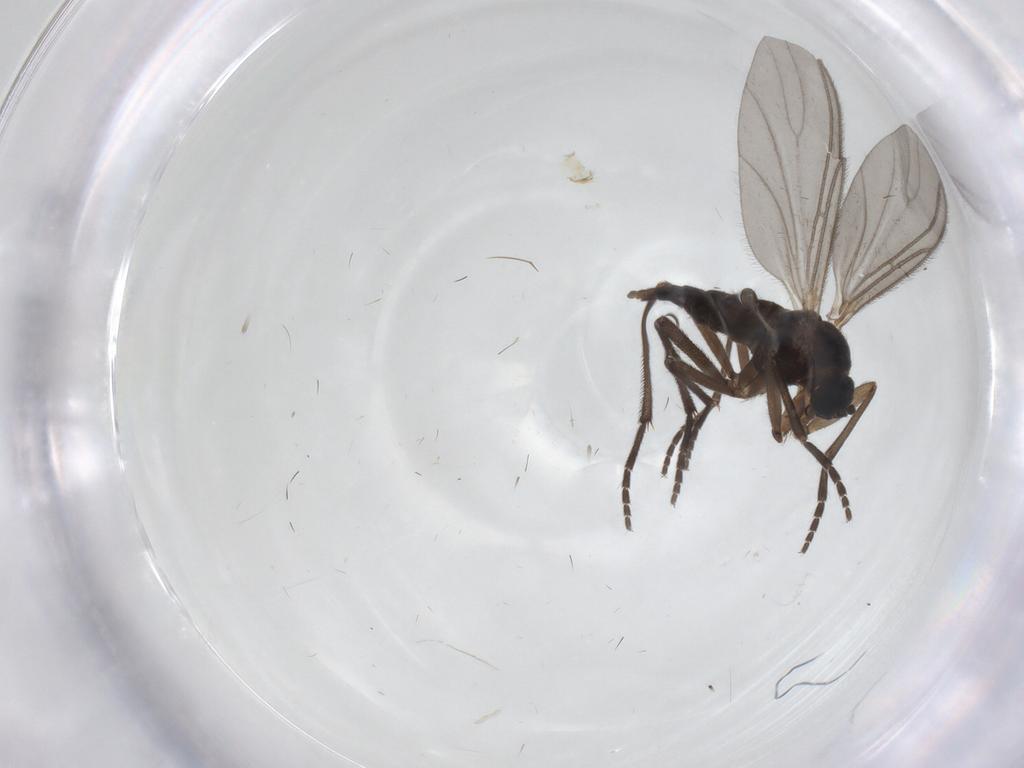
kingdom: Animalia
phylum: Arthropoda
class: Insecta
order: Diptera
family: Sciaridae
